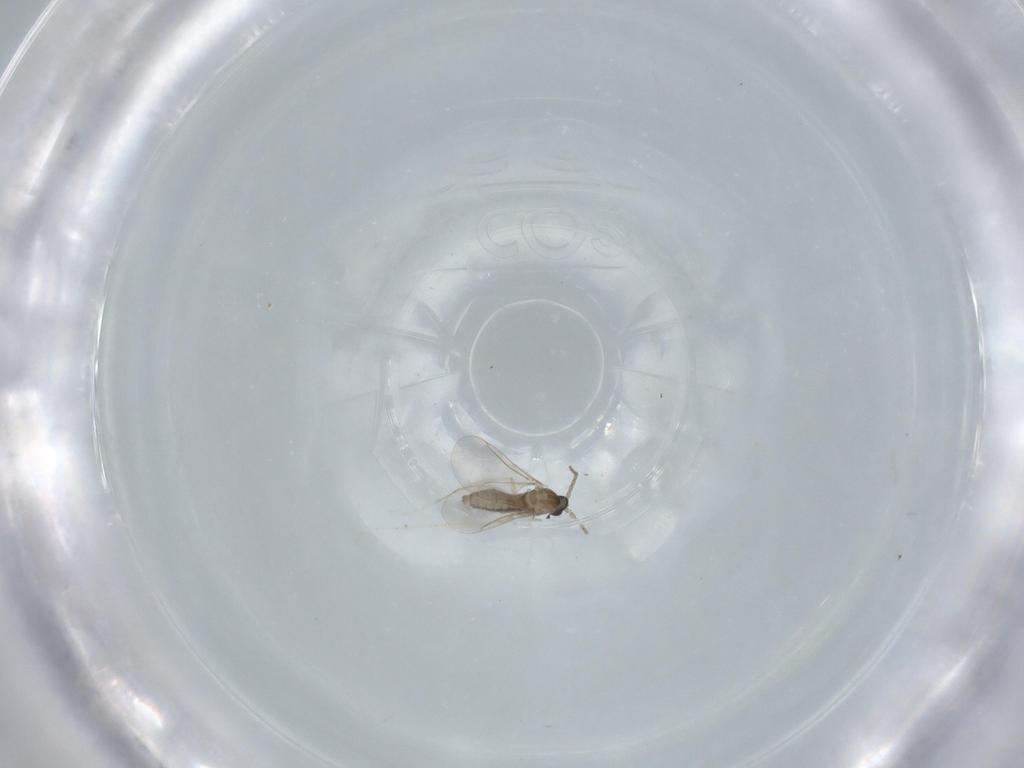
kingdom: Animalia
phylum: Arthropoda
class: Insecta
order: Diptera
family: Cecidomyiidae
